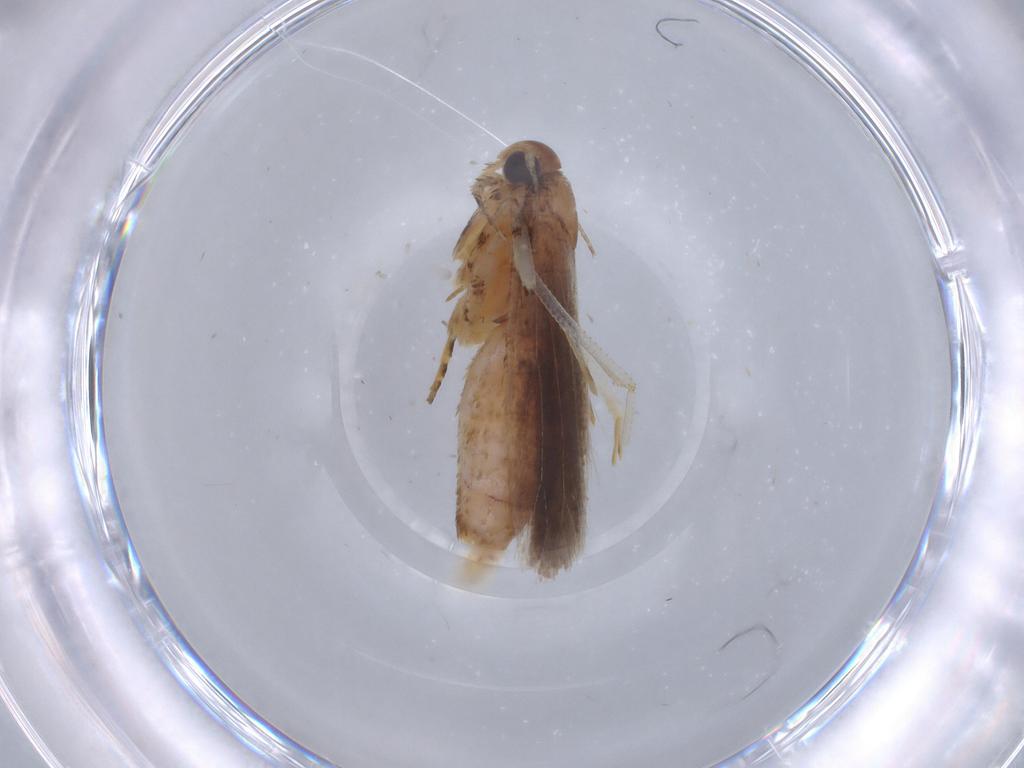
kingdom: Animalia
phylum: Arthropoda
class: Insecta
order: Lepidoptera
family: Gelechiidae
